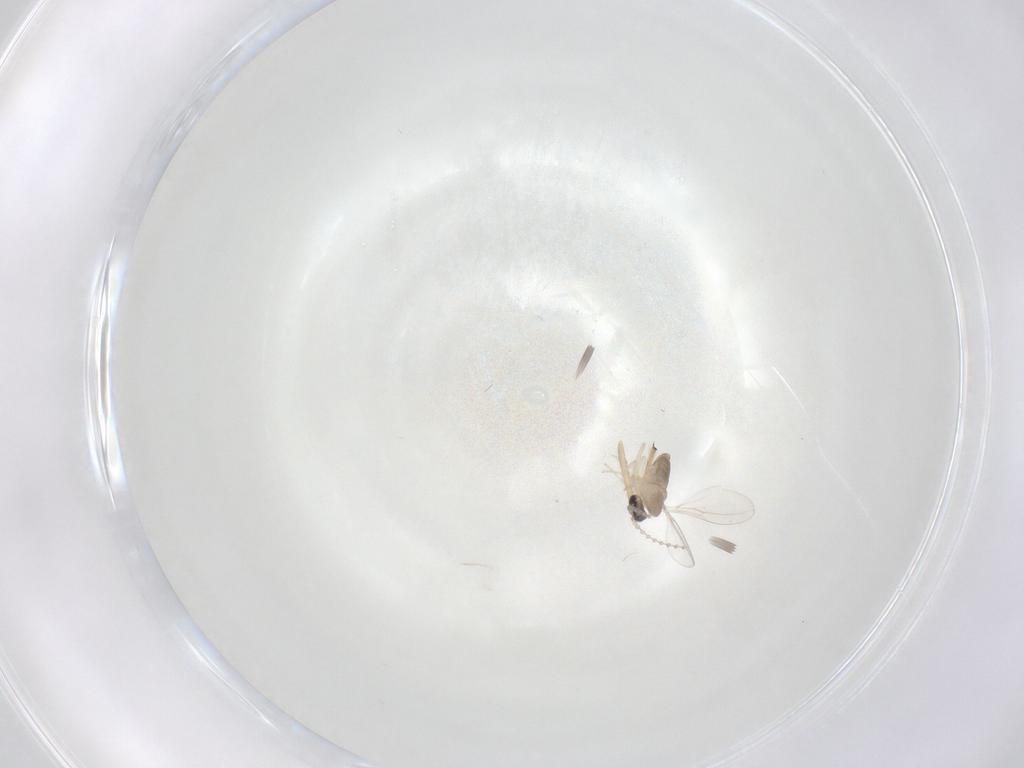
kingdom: Animalia
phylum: Arthropoda
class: Insecta
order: Diptera
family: Cecidomyiidae
